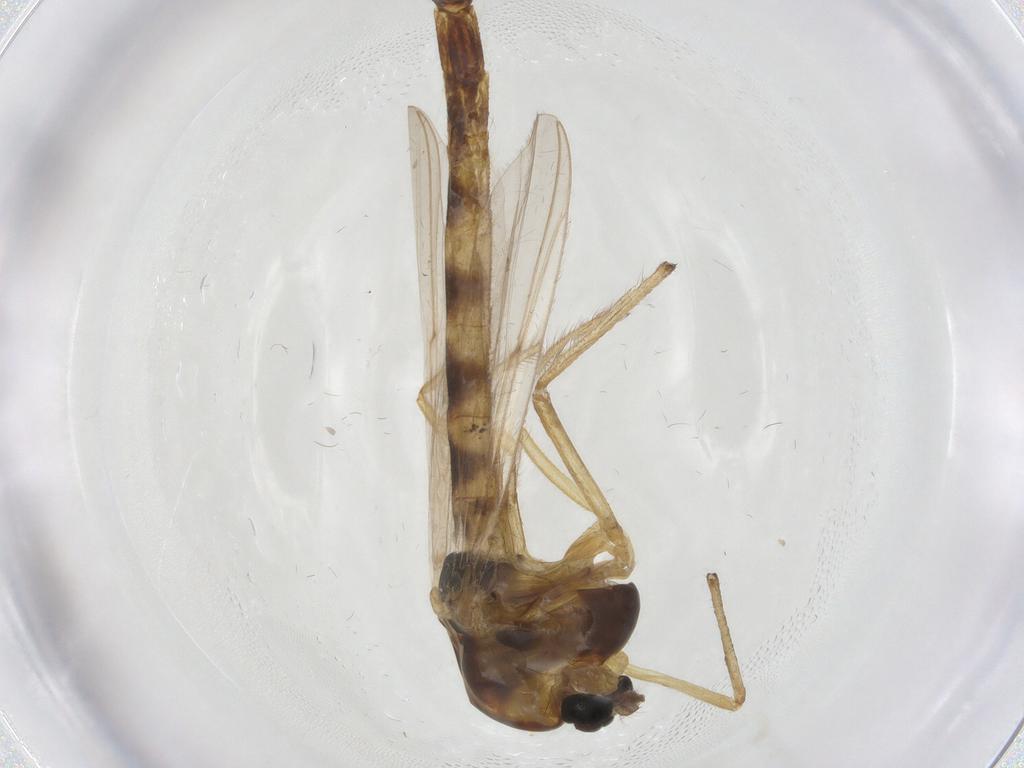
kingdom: Animalia
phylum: Arthropoda
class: Insecta
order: Diptera
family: Chironomidae
